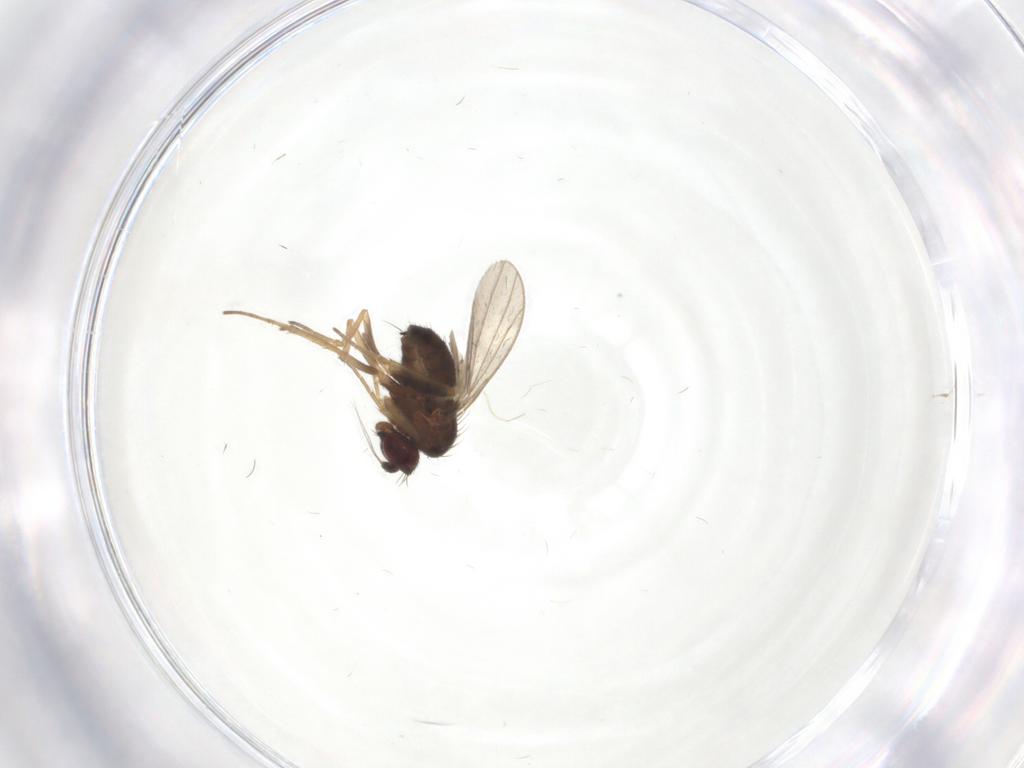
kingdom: Animalia
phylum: Arthropoda
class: Insecta
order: Diptera
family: Dolichopodidae
